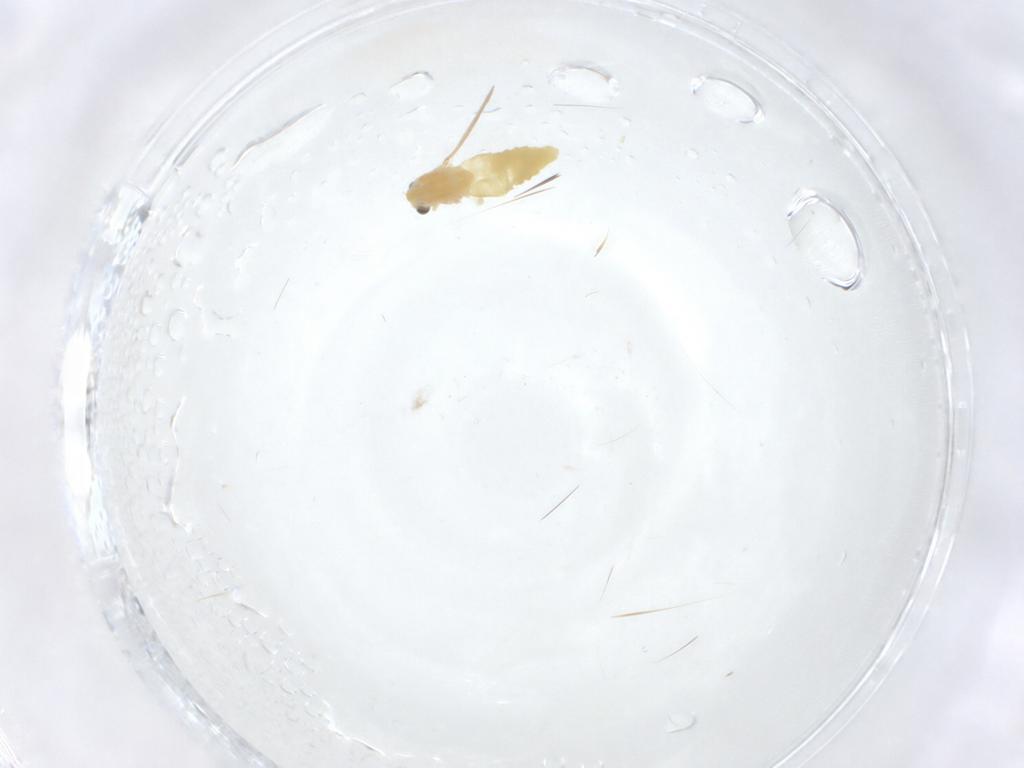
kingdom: Animalia
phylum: Arthropoda
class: Insecta
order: Diptera
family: Chironomidae
